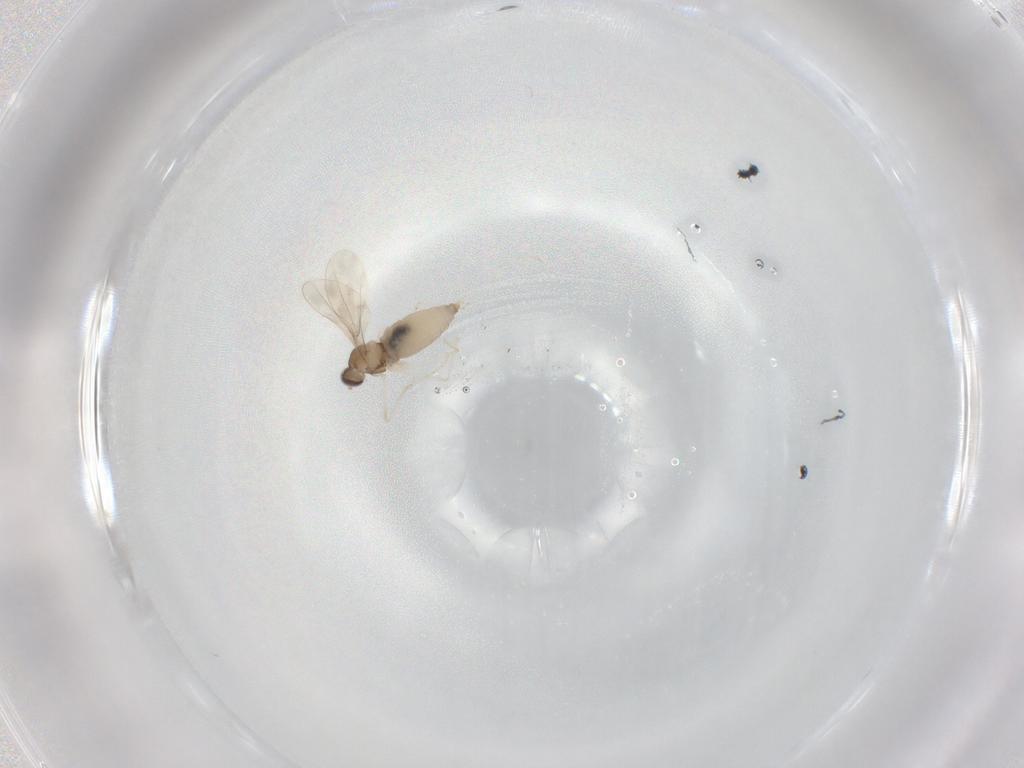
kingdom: Animalia
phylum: Arthropoda
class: Insecta
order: Diptera
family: Cecidomyiidae
